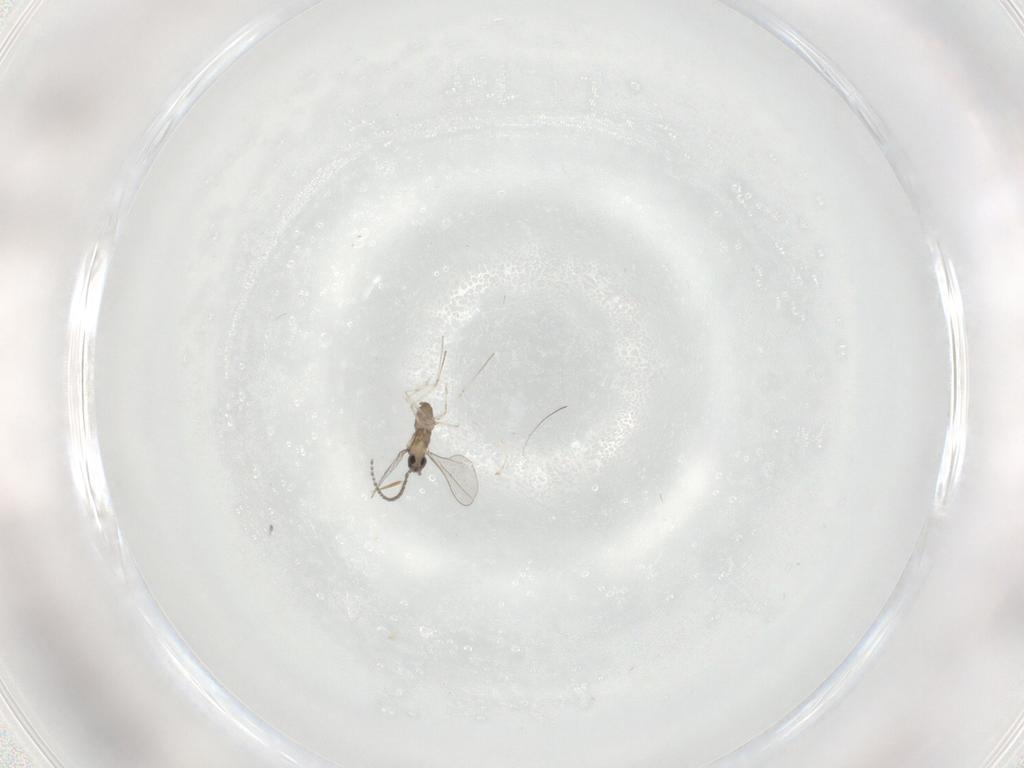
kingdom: Animalia
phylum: Arthropoda
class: Insecta
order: Diptera
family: Cecidomyiidae
